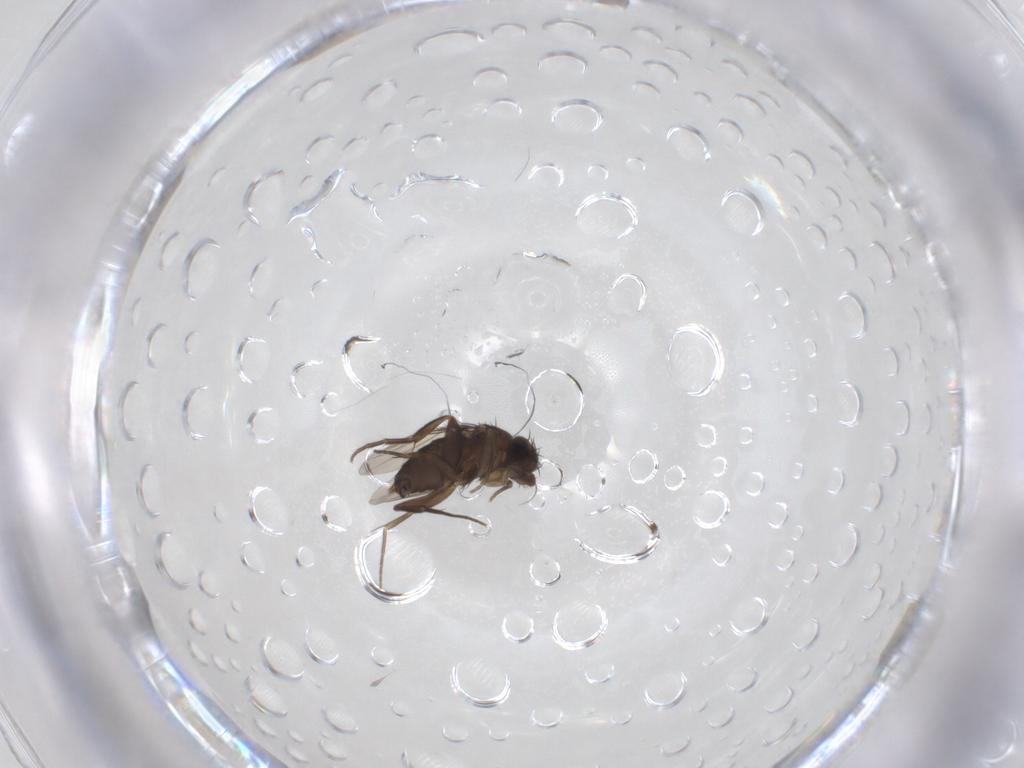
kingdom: Animalia
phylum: Arthropoda
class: Insecta
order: Diptera
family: Phoridae
